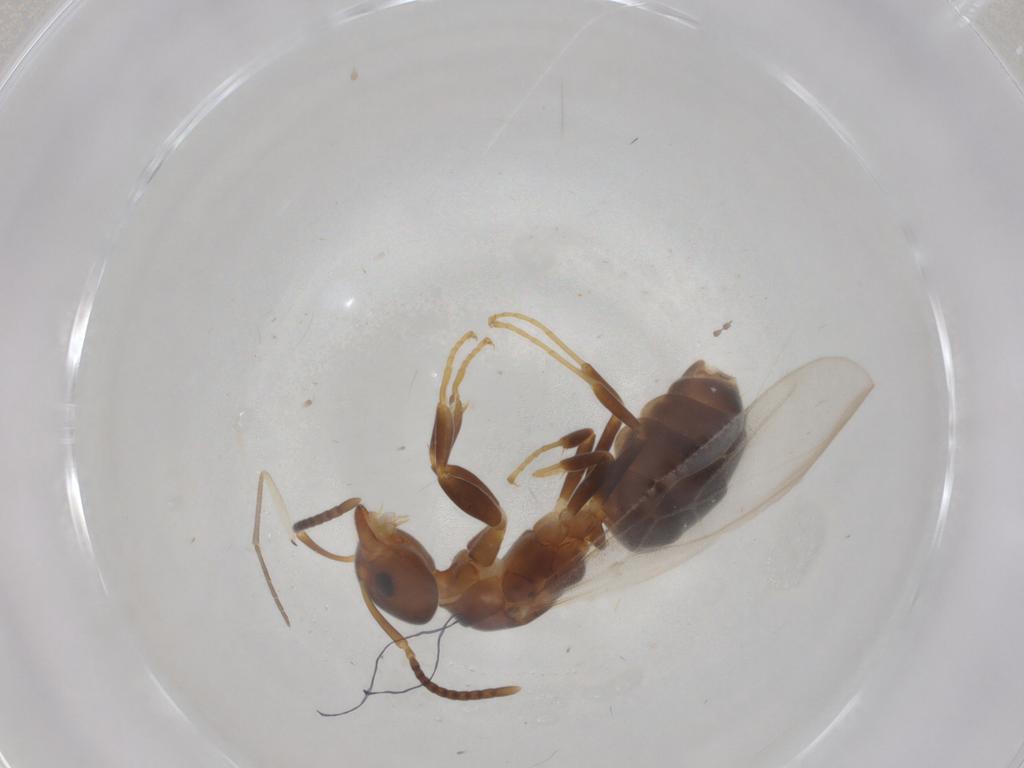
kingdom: Animalia
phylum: Arthropoda
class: Insecta
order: Hymenoptera
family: Formicidae
